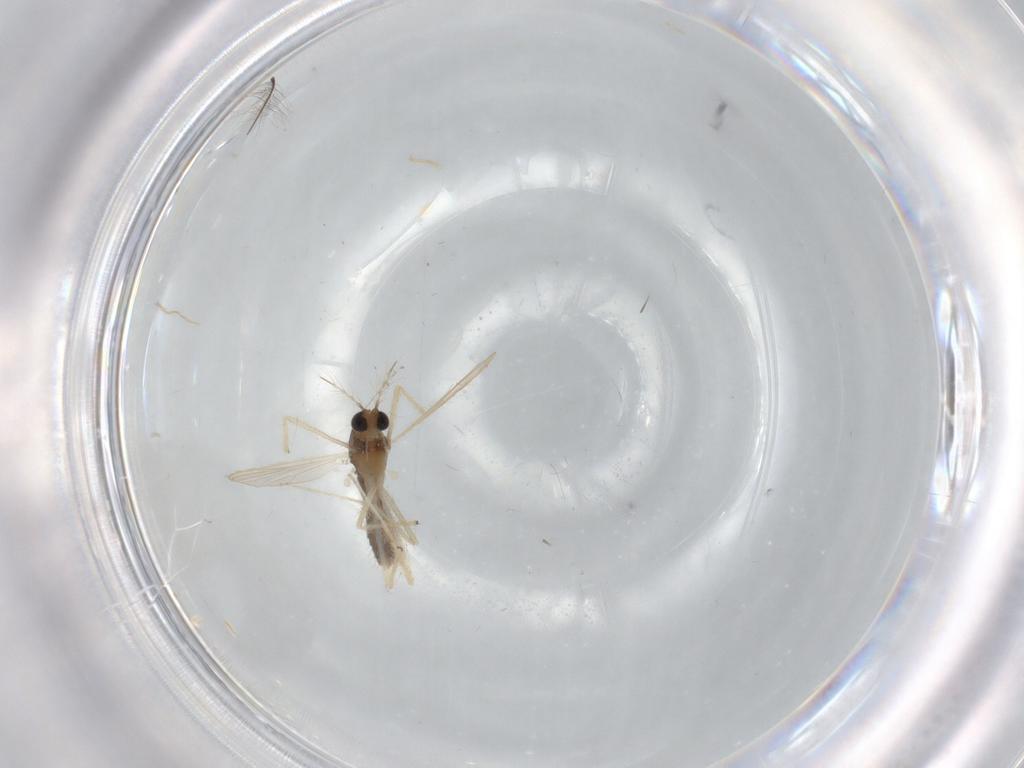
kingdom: Animalia
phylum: Arthropoda
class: Insecta
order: Diptera
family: Chironomidae
